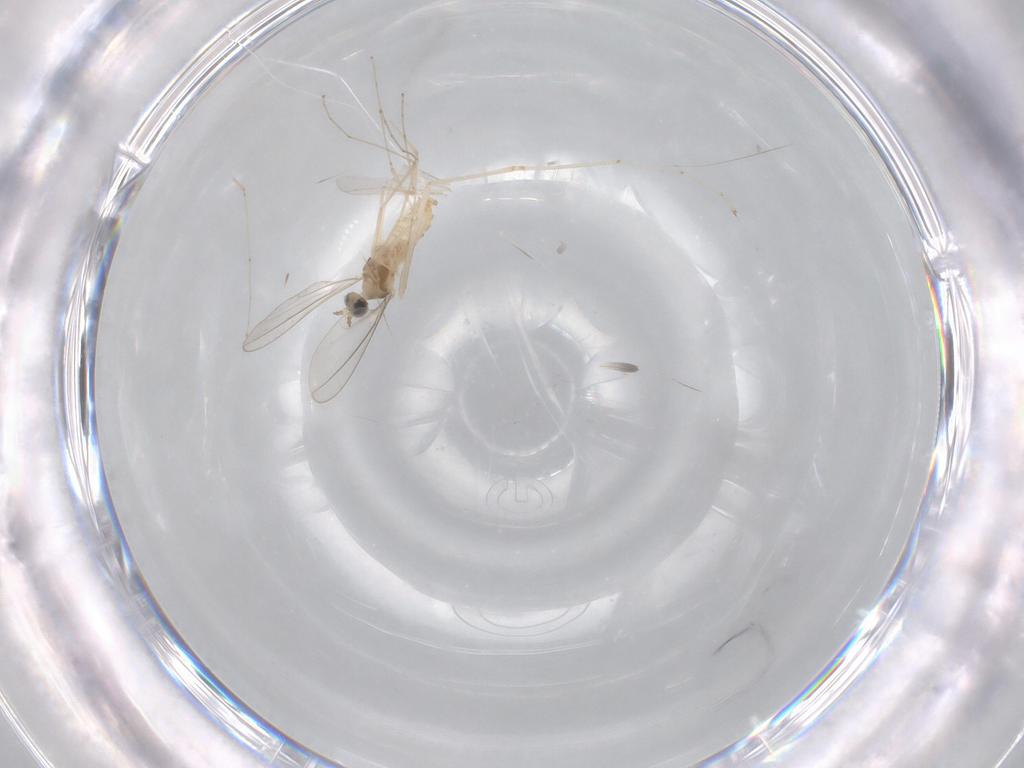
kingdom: Animalia
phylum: Arthropoda
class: Insecta
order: Diptera
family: Cecidomyiidae
